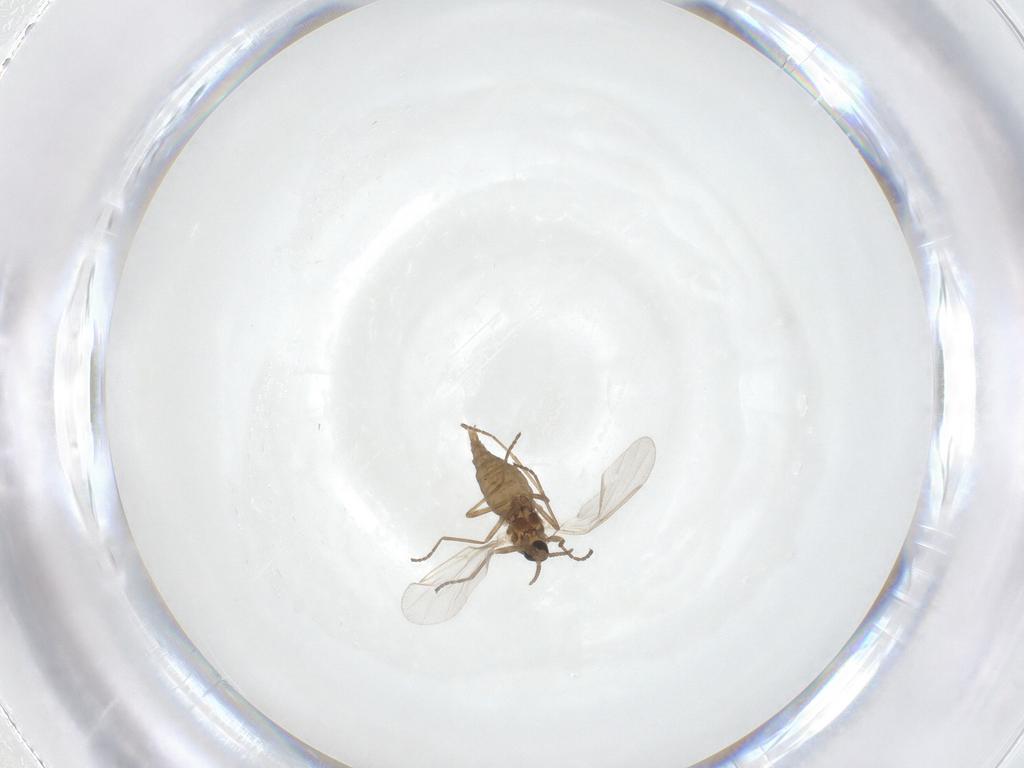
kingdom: Animalia
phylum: Arthropoda
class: Insecta
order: Diptera
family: Cecidomyiidae
